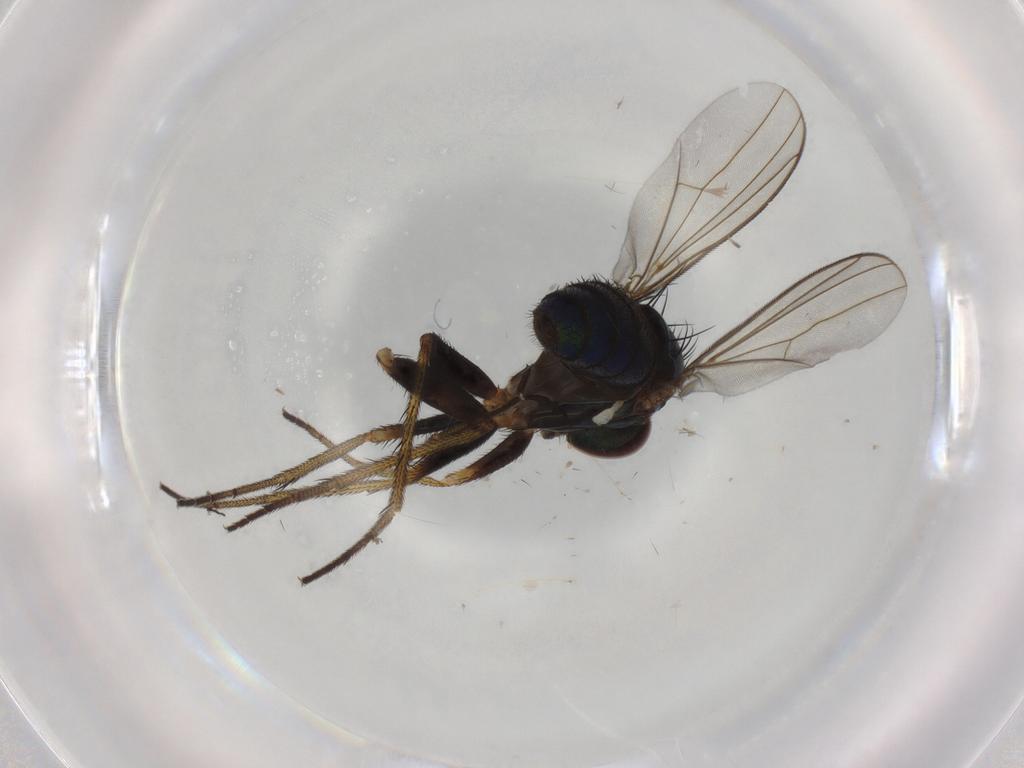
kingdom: Animalia
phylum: Arthropoda
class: Insecta
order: Diptera
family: Dolichopodidae
